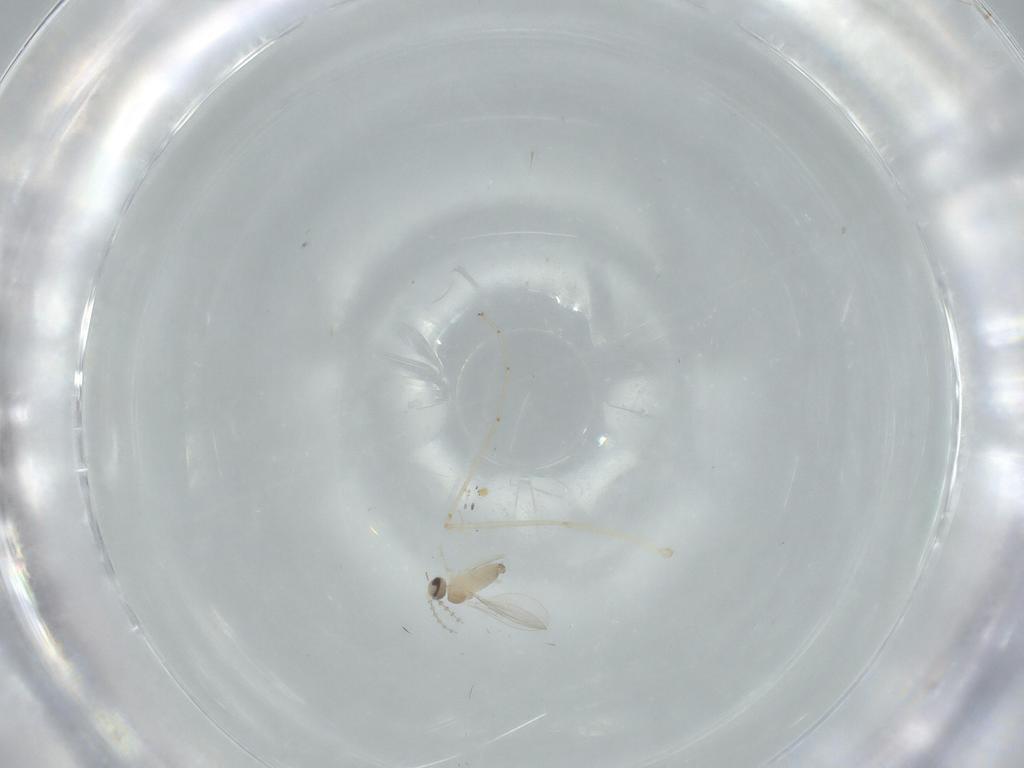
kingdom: Animalia
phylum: Arthropoda
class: Insecta
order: Diptera
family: Cecidomyiidae
